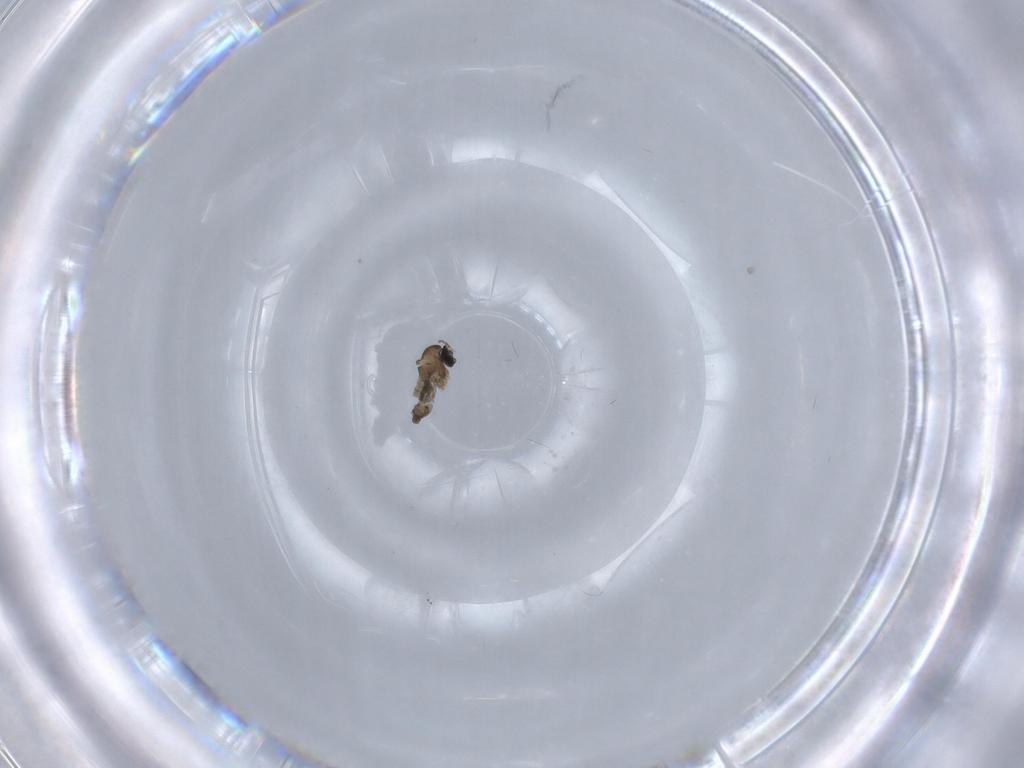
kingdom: Animalia
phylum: Arthropoda
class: Insecta
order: Diptera
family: Cecidomyiidae
